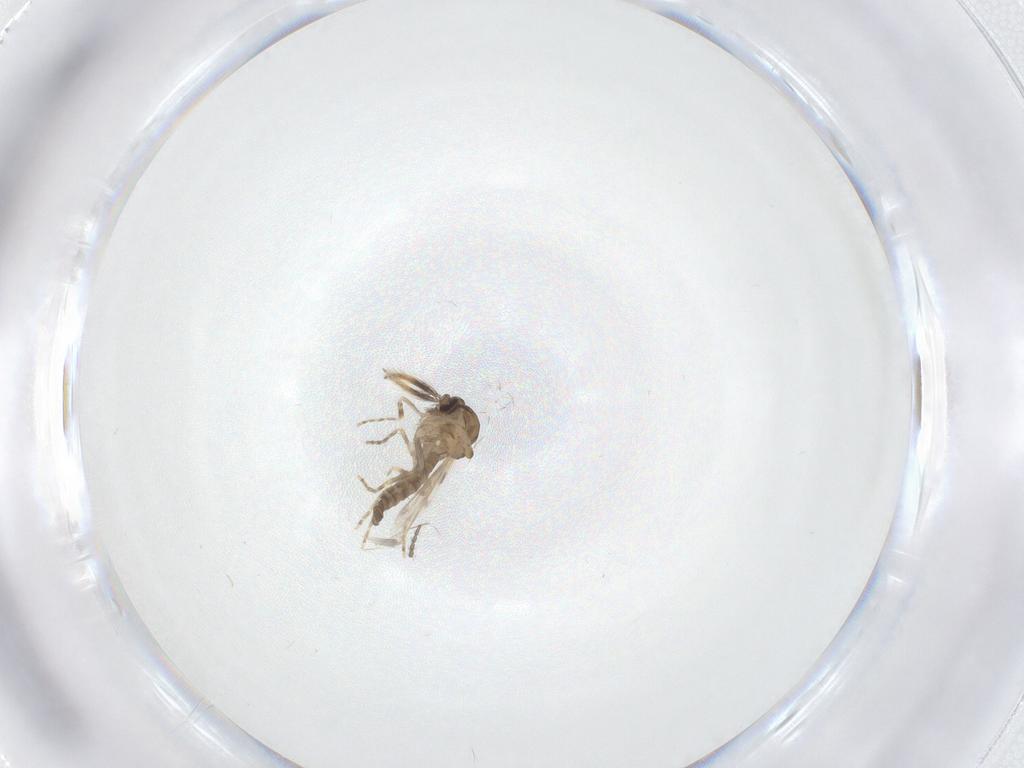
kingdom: Animalia
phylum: Arthropoda
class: Insecta
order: Diptera
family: Ceratopogonidae
